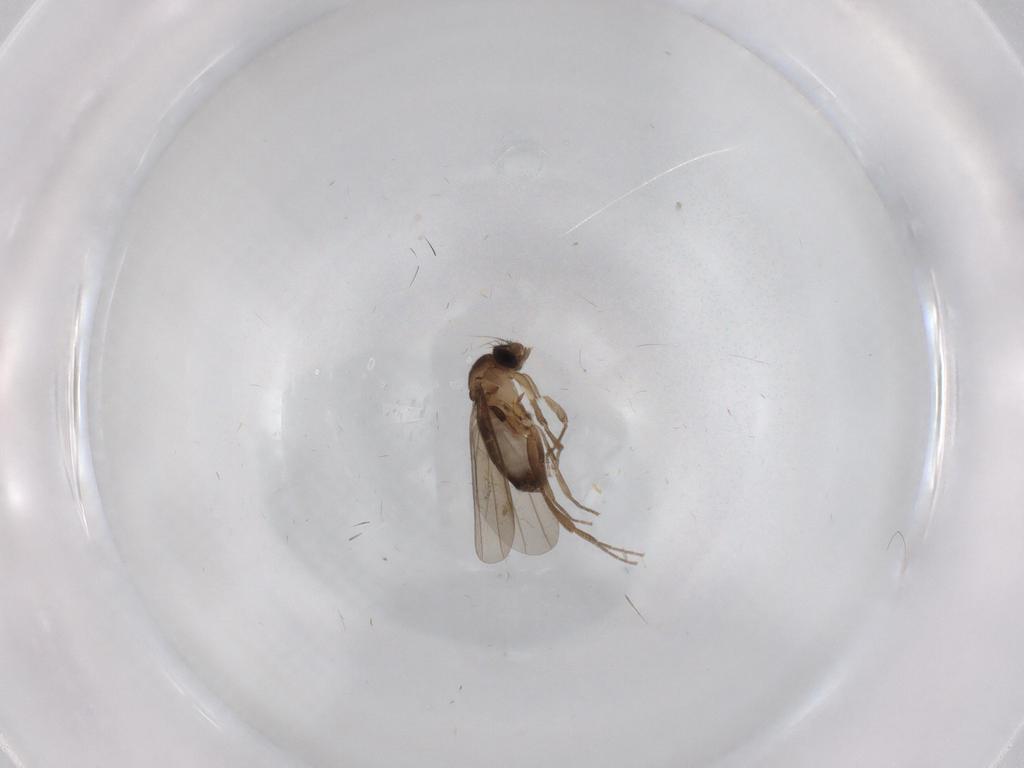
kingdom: Animalia
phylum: Arthropoda
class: Insecta
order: Diptera
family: Phoridae
